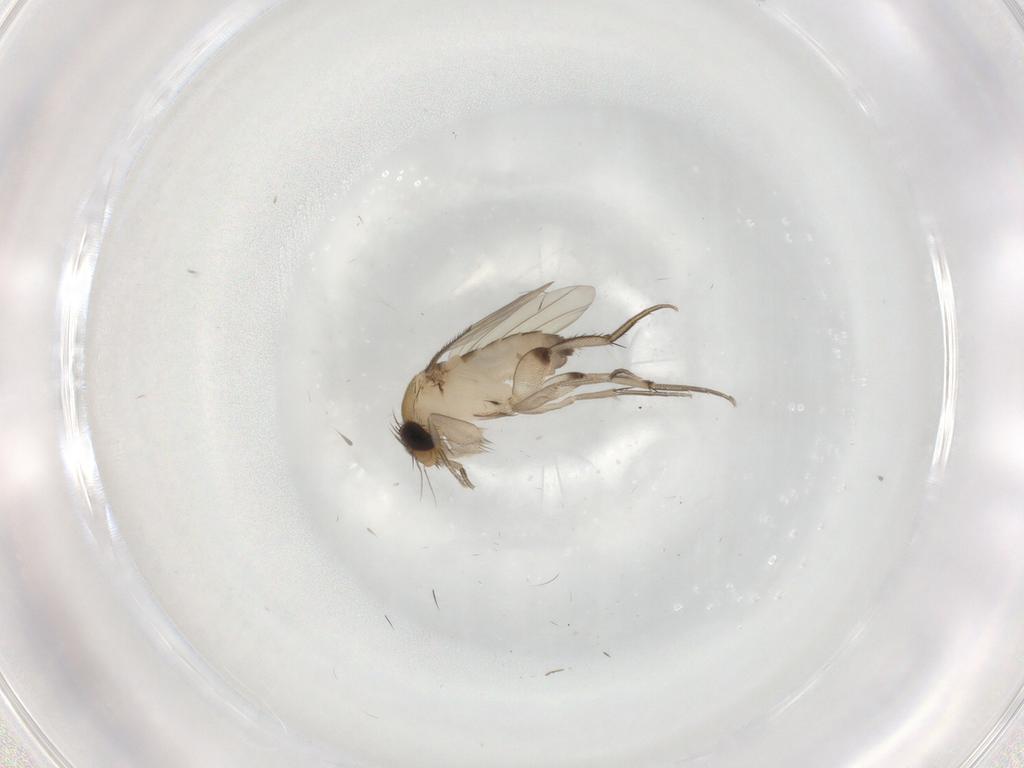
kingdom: Animalia
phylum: Arthropoda
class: Insecta
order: Diptera
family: Phoridae
